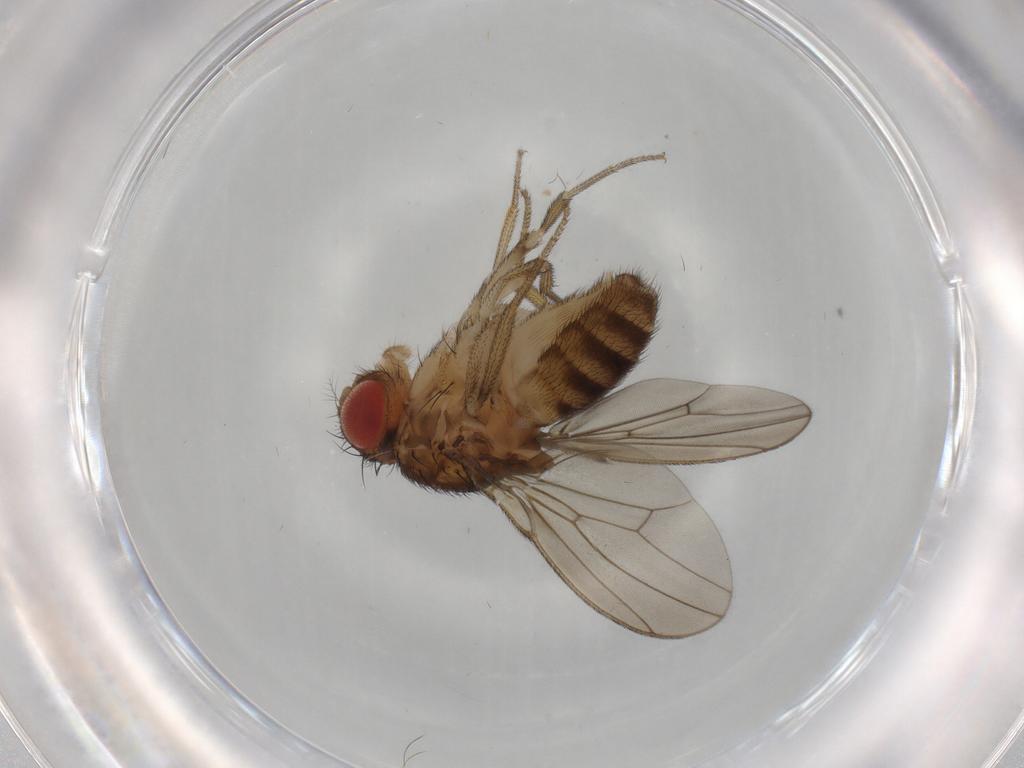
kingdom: Animalia
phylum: Arthropoda
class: Insecta
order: Diptera
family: Drosophilidae
